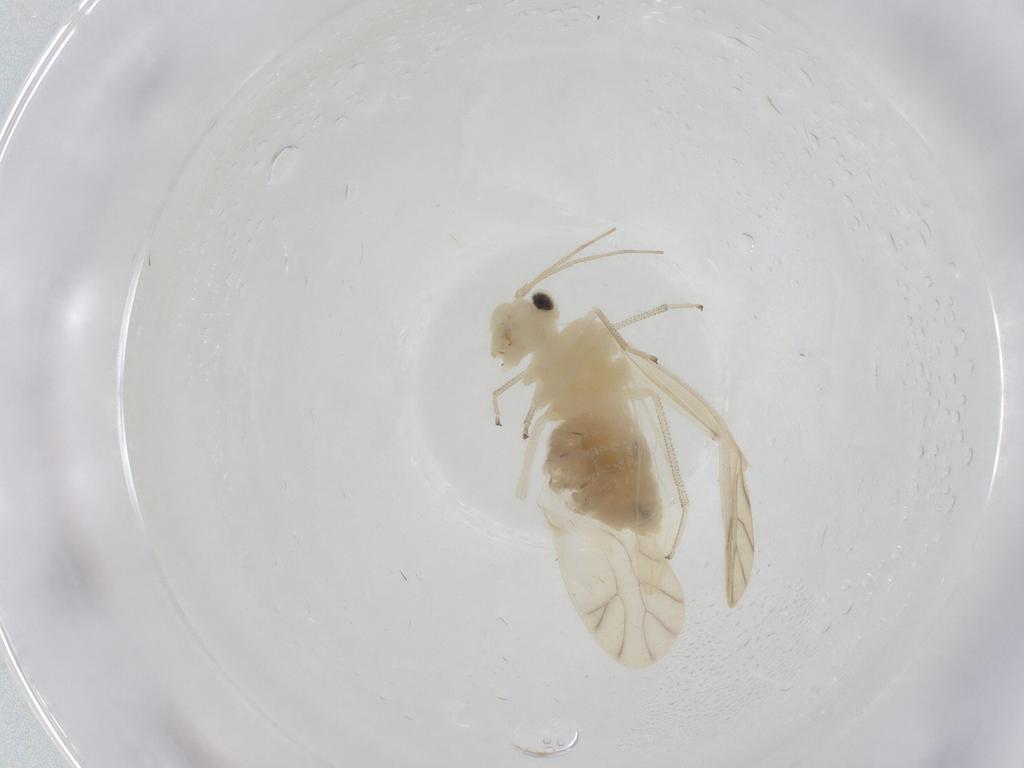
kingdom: Animalia
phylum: Arthropoda
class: Insecta
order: Psocodea
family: Caeciliusidae
